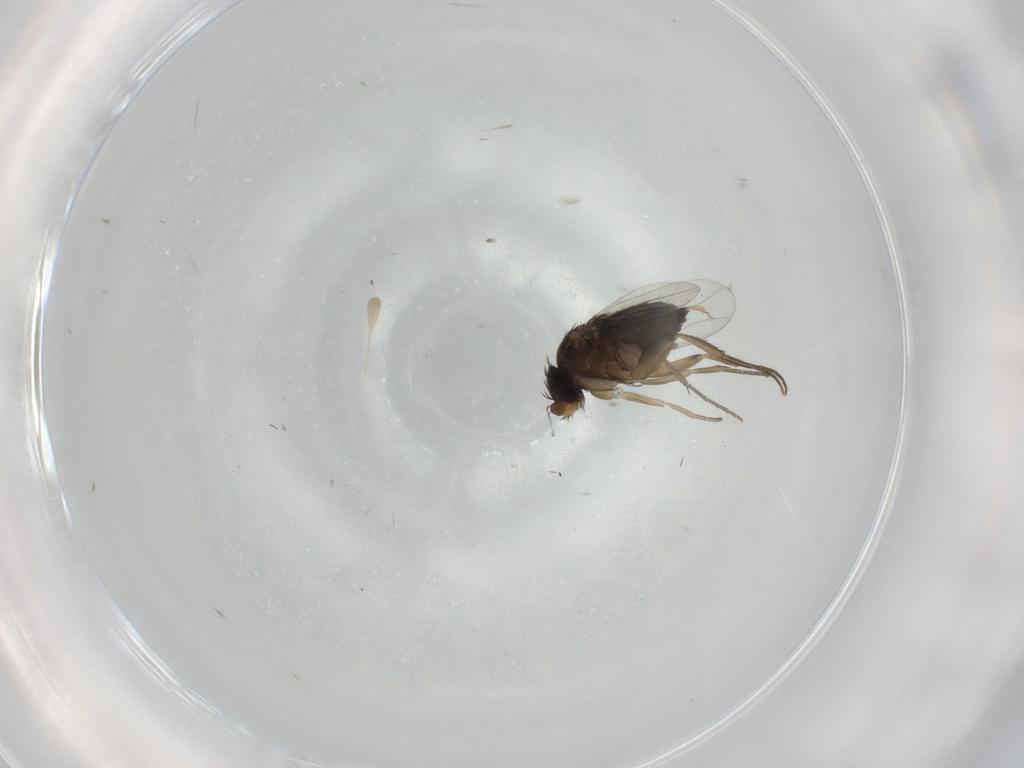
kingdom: Animalia
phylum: Arthropoda
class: Insecta
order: Diptera
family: Phoridae
